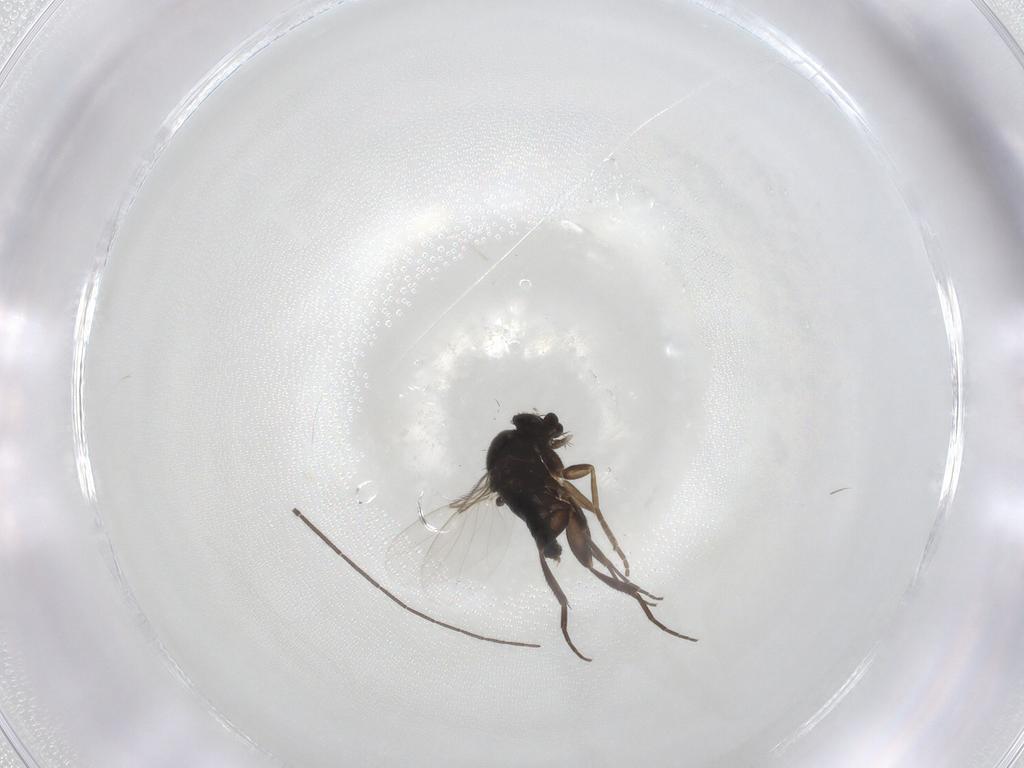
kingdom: Animalia
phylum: Arthropoda
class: Insecta
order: Diptera
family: Phoridae
